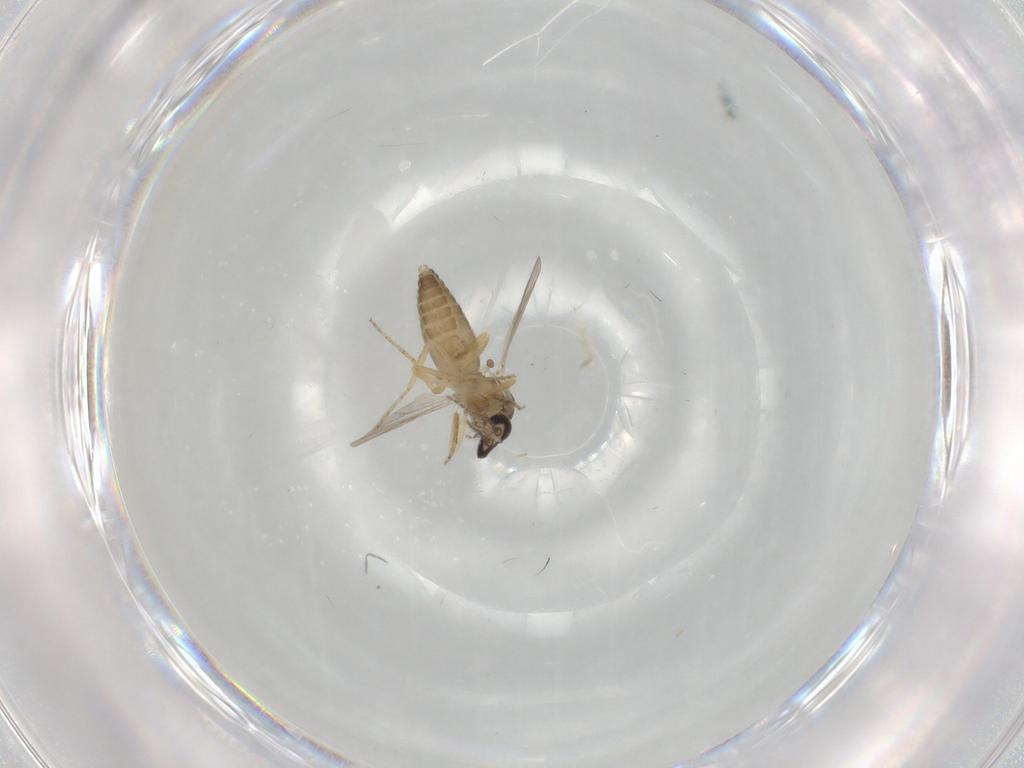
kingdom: Animalia
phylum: Arthropoda
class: Insecta
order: Diptera
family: Ceratopogonidae
